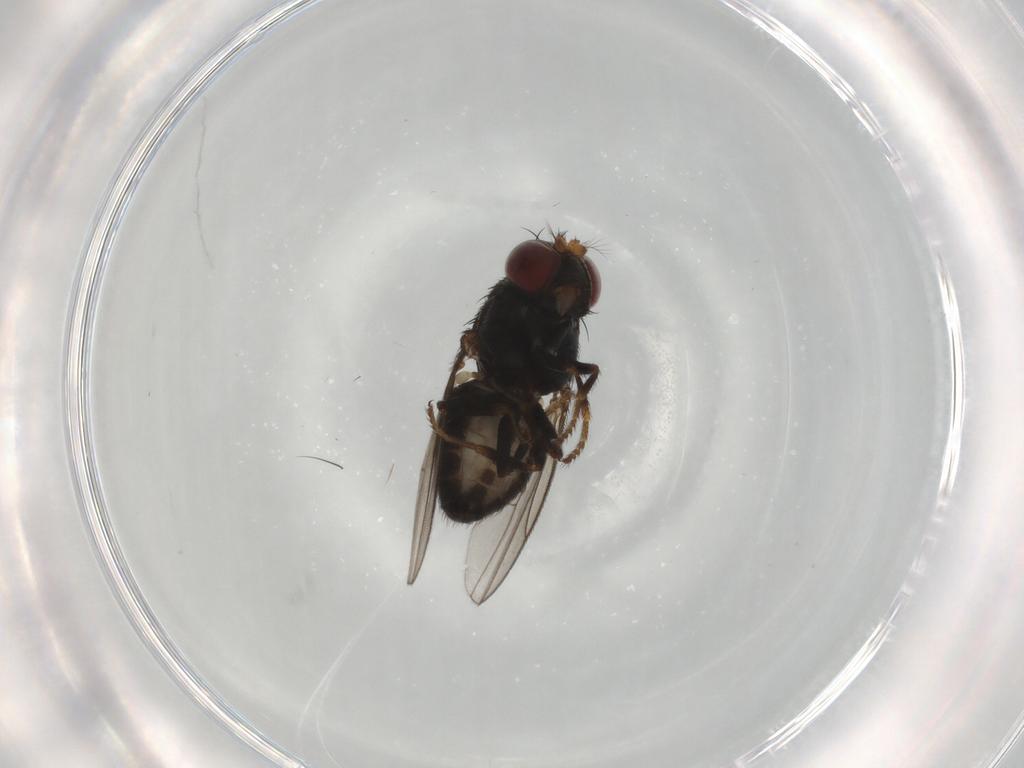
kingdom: Animalia
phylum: Arthropoda
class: Insecta
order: Diptera
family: Ephydridae
